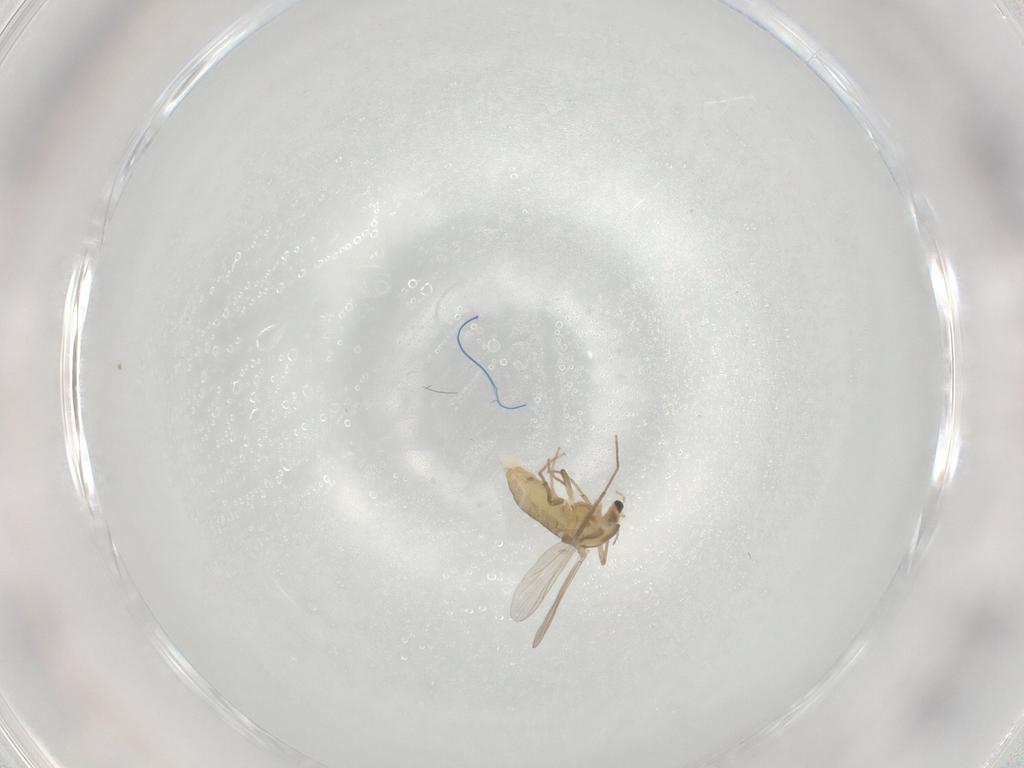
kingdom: Animalia
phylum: Arthropoda
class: Insecta
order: Diptera
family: Chironomidae
